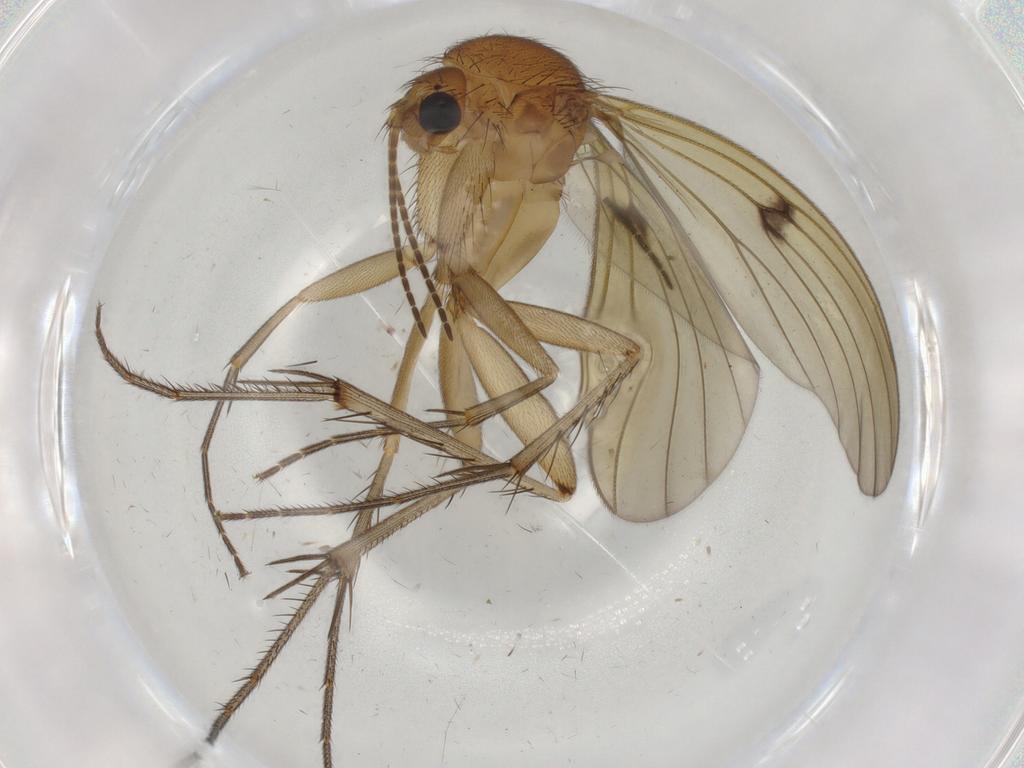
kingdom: Animalia
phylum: Arthropoda
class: Insecta
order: Diptera
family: Sciaridae
